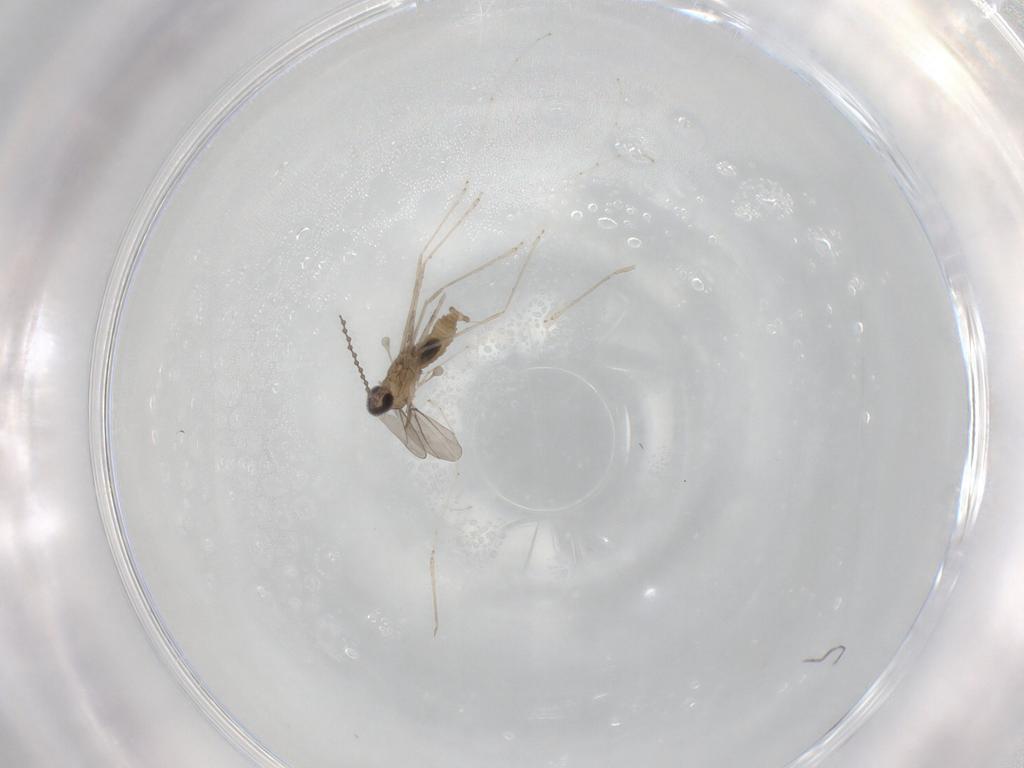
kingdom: Animalia
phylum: Arthropoda
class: Insecta
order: Diptera
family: Cecidomyiidae
